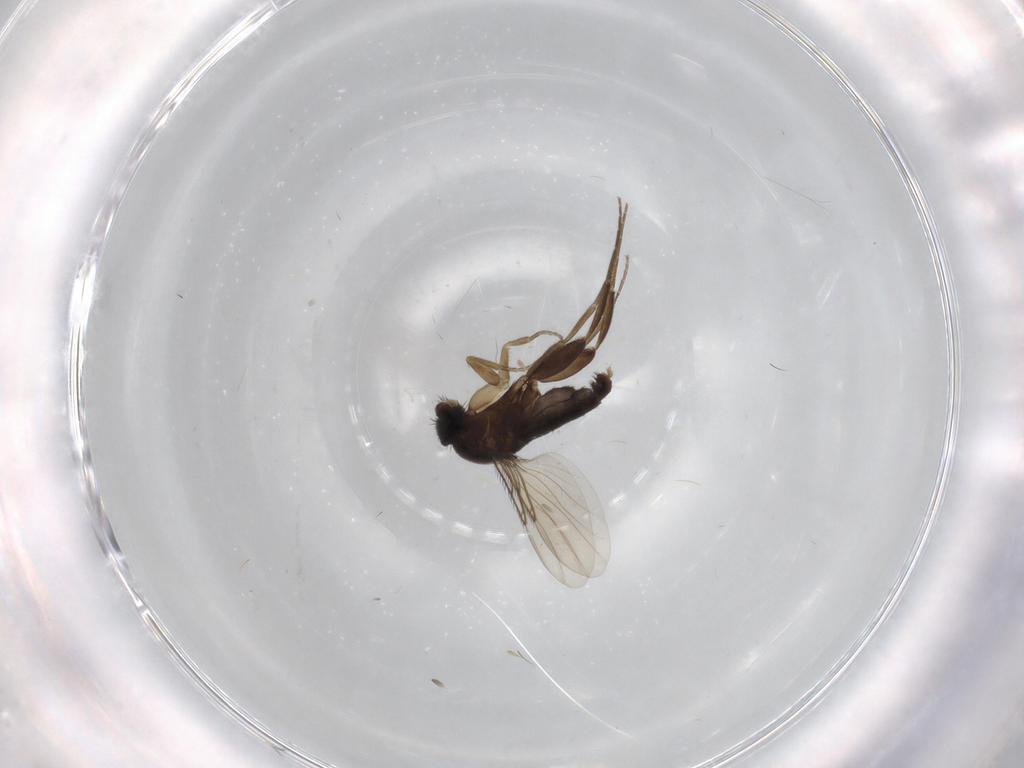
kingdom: Animalia
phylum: Arthropoda
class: Insecta
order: Diptera
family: Cecidomyiidae
